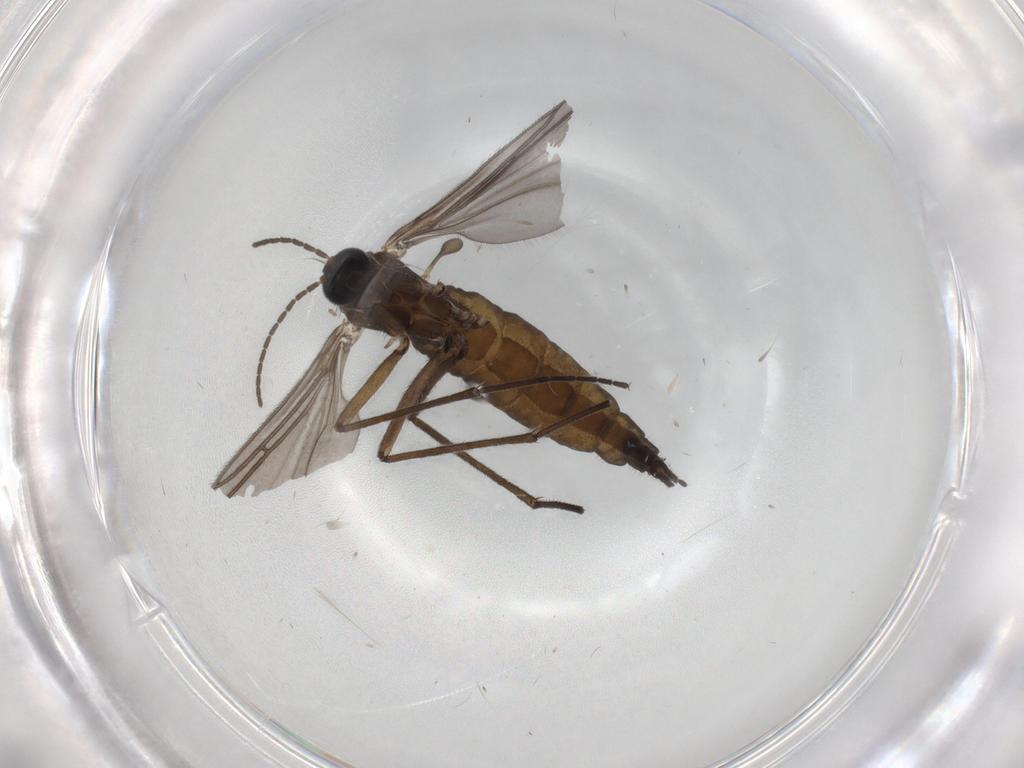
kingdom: Animalia
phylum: Arthropoda
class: Insecta
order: Diptera
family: Sciaridae
